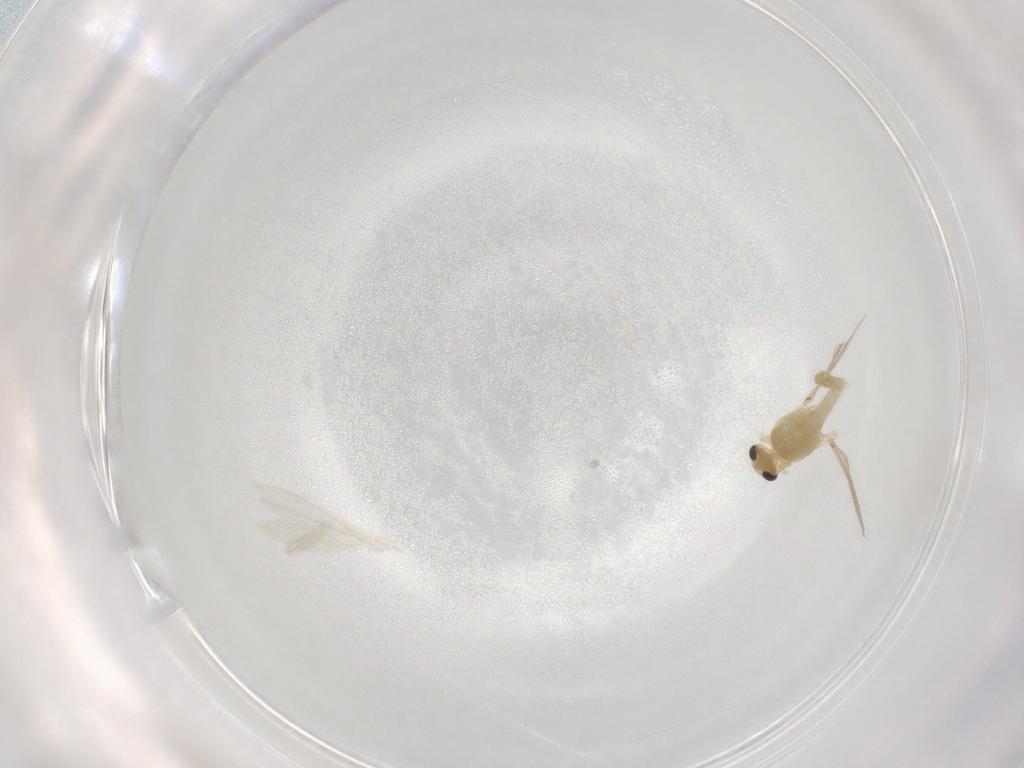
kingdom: Animalia
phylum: Arthropoda
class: Insecta
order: Diptera
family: Chironomidae
